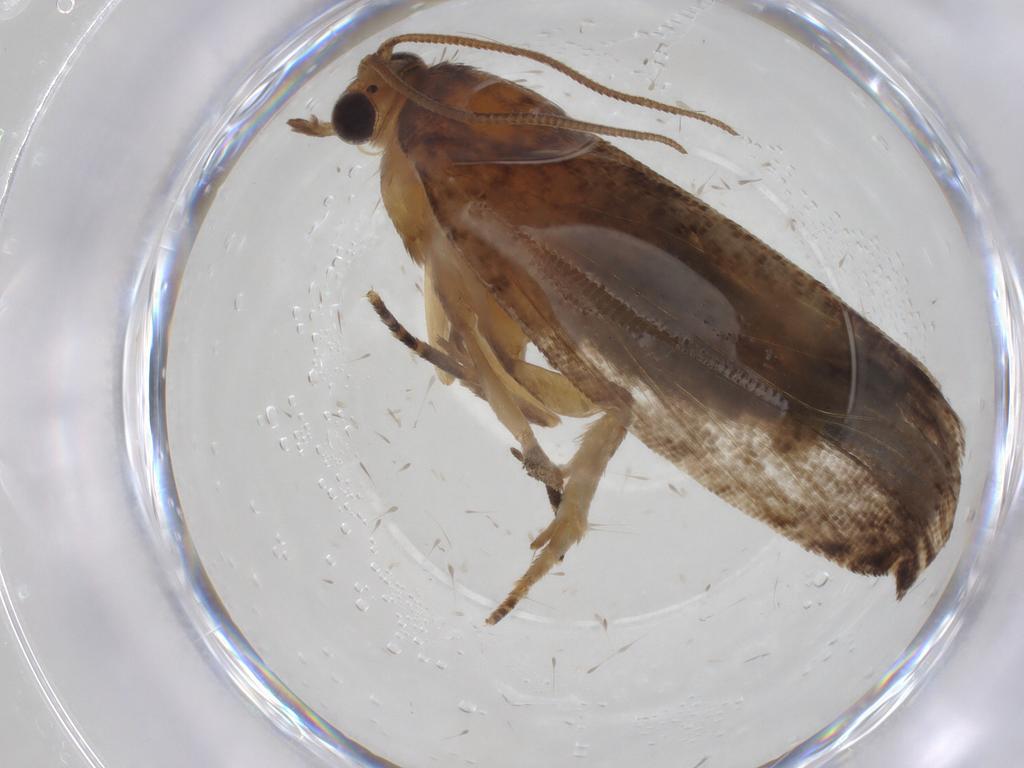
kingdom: Animalia
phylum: Arthropoda
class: Insecta
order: Lepidoptera
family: Tortricidae
